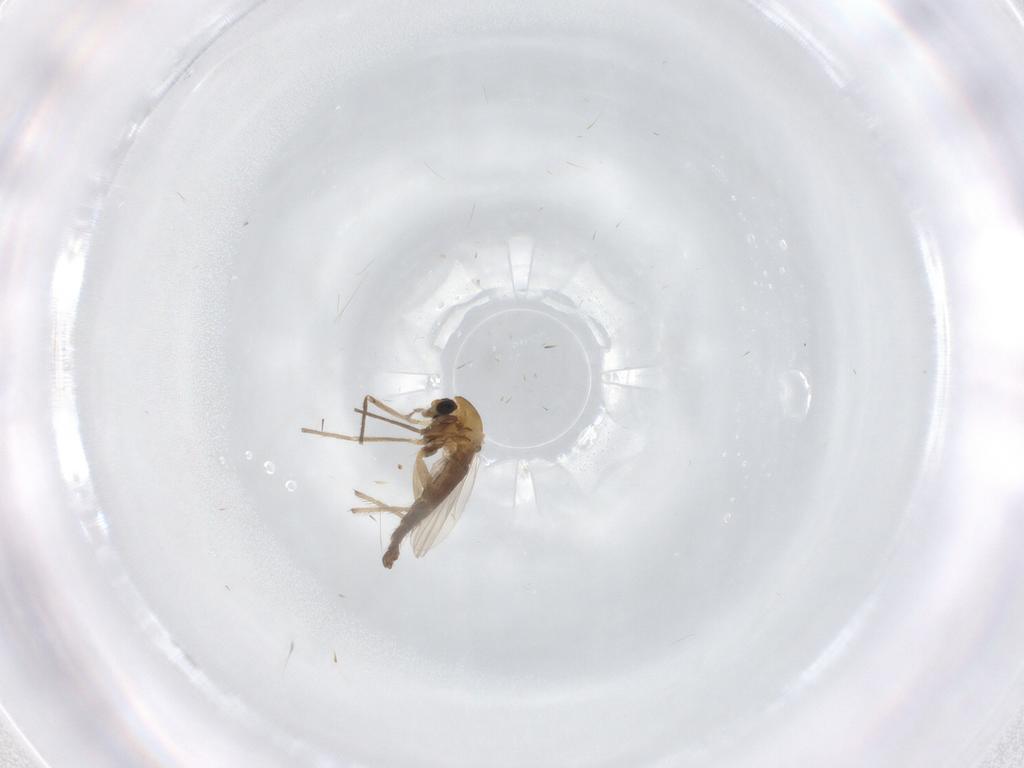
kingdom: Animalia
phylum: Arthropoda
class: Insecta
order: Diptera
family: Chironomidae
